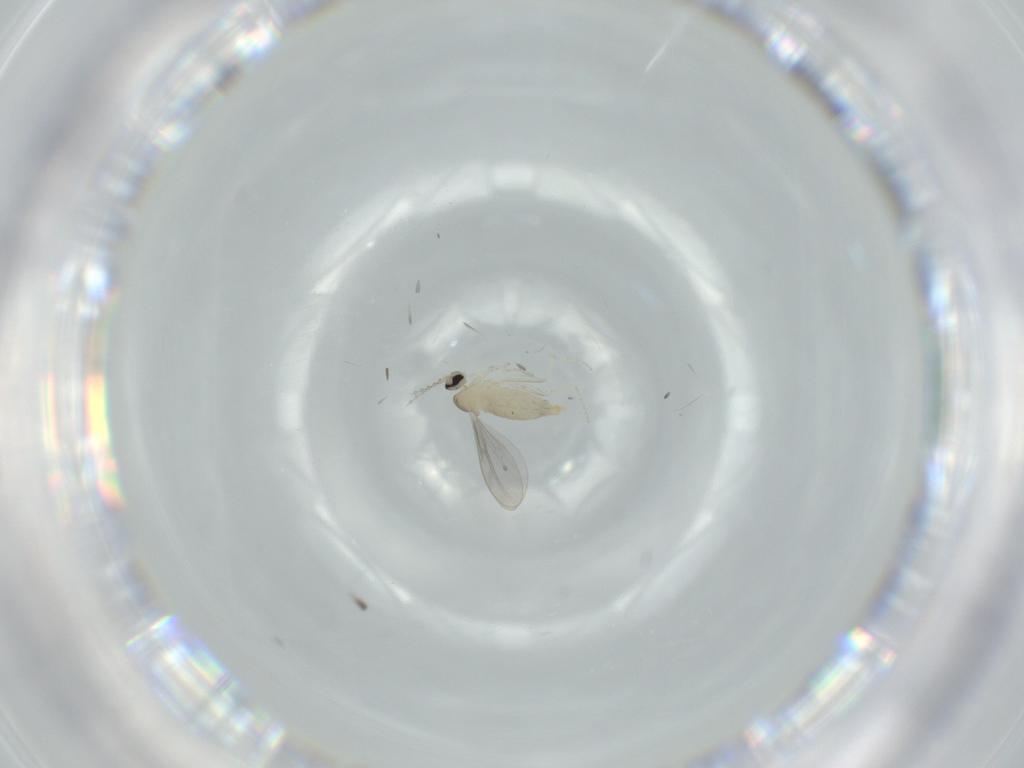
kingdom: Animalia
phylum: Arthropoda
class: Insecta
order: Diptera
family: Cecidomyiidae
